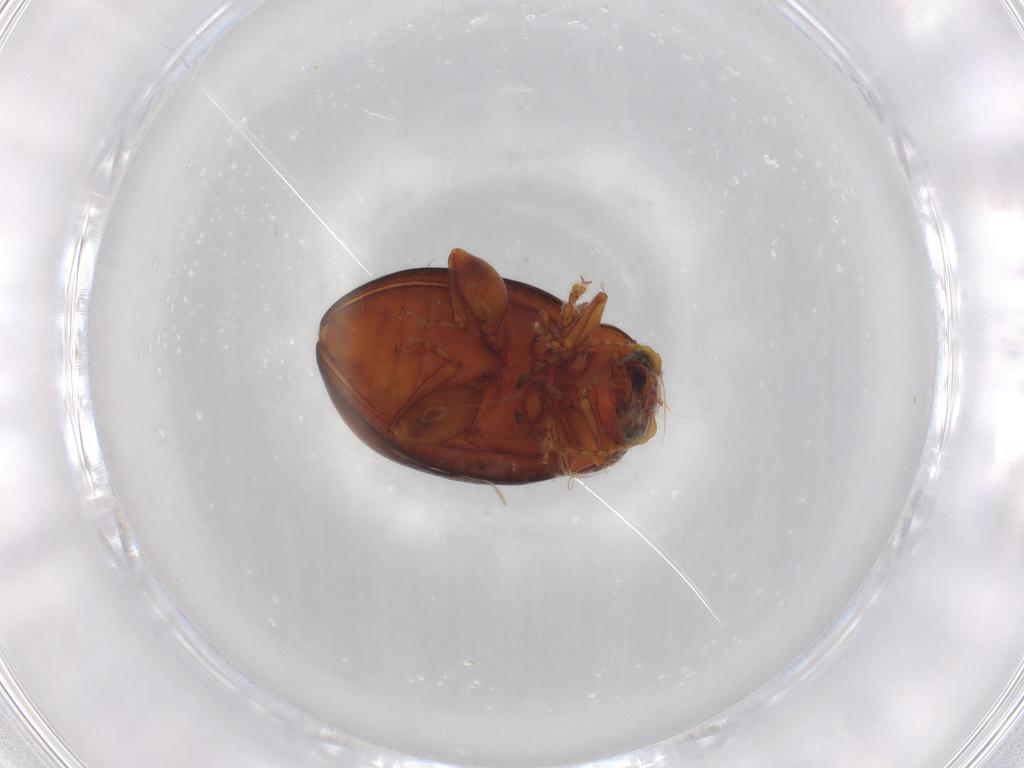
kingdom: Animalia
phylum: Arthropoda
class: Insecta
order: Coleoptera
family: Chrysomelidae
